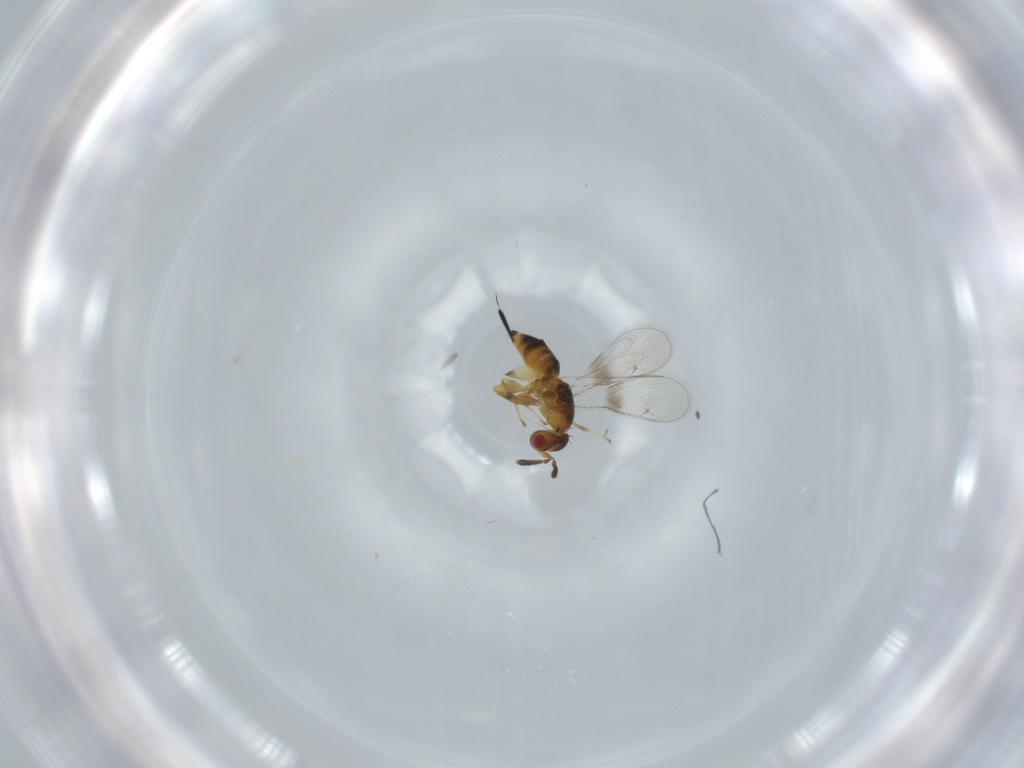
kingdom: Animalia
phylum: Arthropoda
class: Insecta
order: Hymenoptera
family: Torymidae
